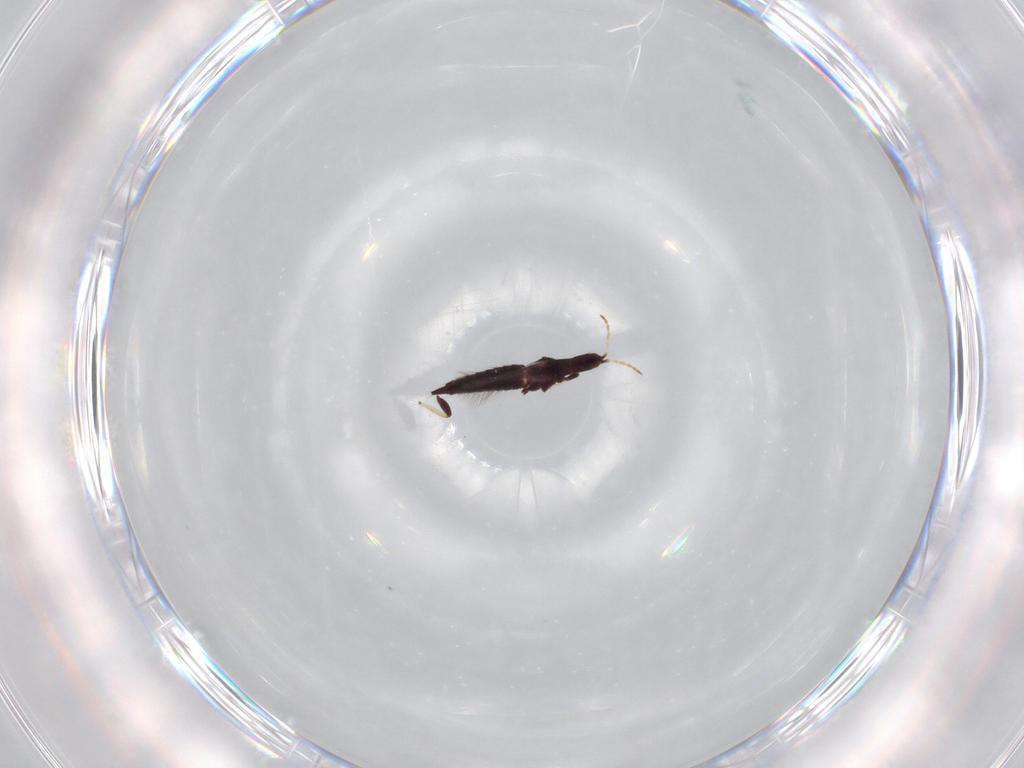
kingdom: Animalia
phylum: Arthropoda
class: Insecta
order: Thysanoptera
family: Phlaeothripidae
